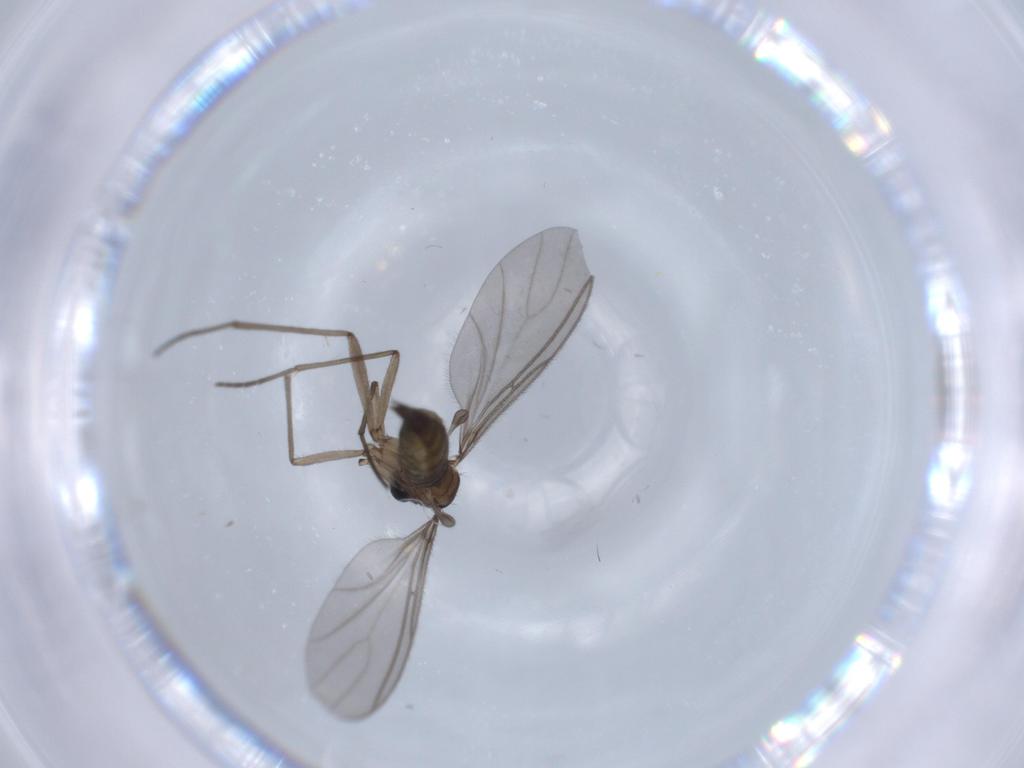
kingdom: Animalia
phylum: Arthropoda
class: Insecta
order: Diptera
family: Sciaridae
